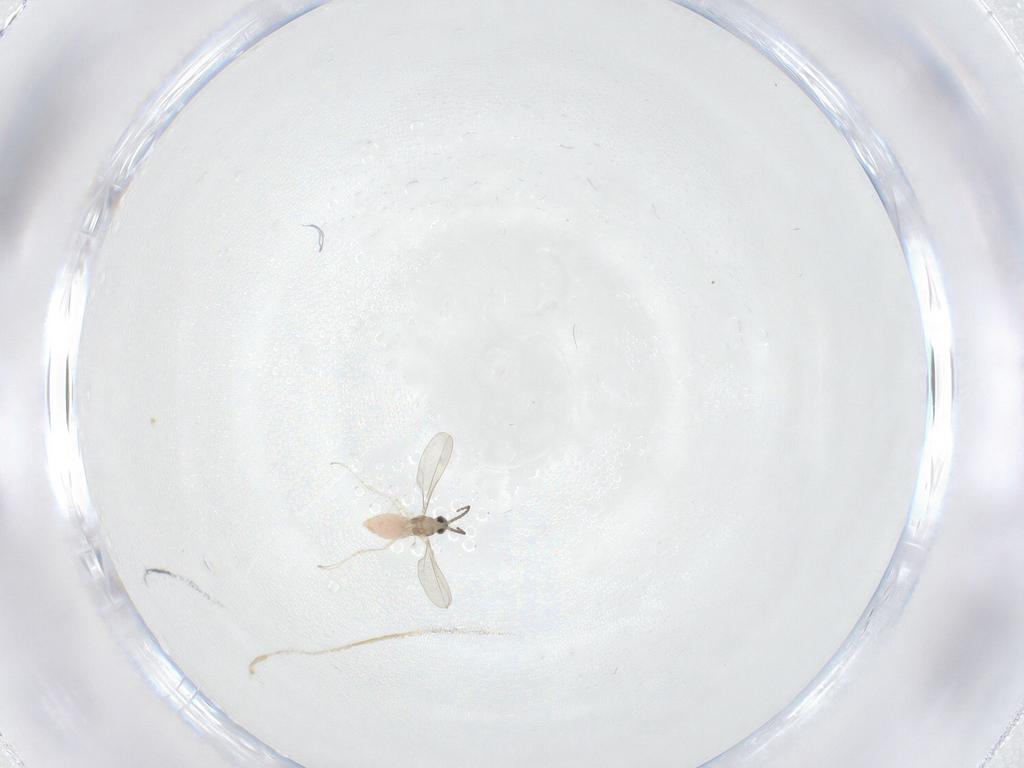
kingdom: Animalia
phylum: Arthropoda
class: Insecta
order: Diptera
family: Cecidomyiidae
